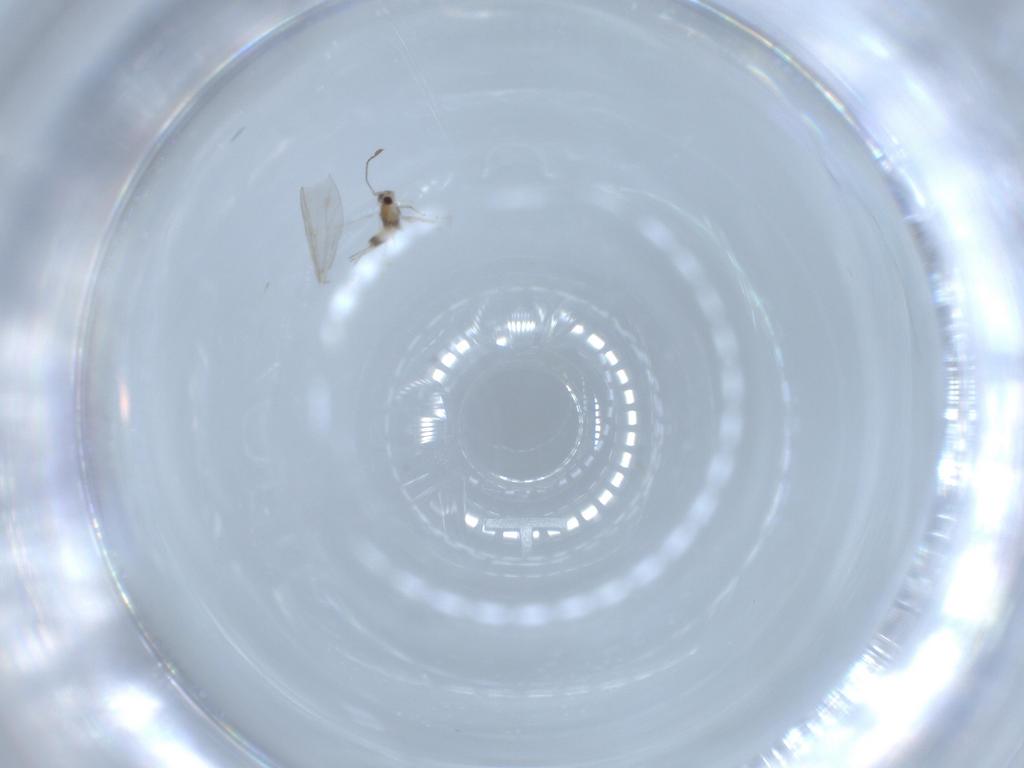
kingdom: Animalia
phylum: Arthropoda
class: Insecta
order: Hymenoptera
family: Mymaridae
